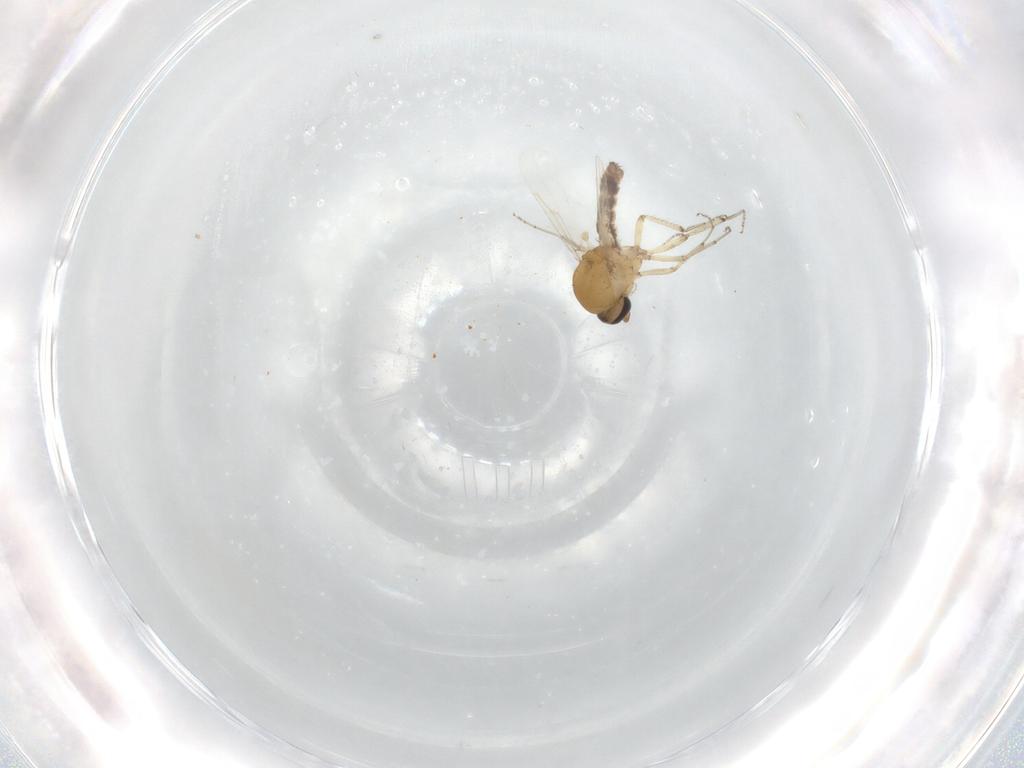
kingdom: Animalia
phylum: Arthropoda
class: Insecta
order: Diptera
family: Chironomidae
